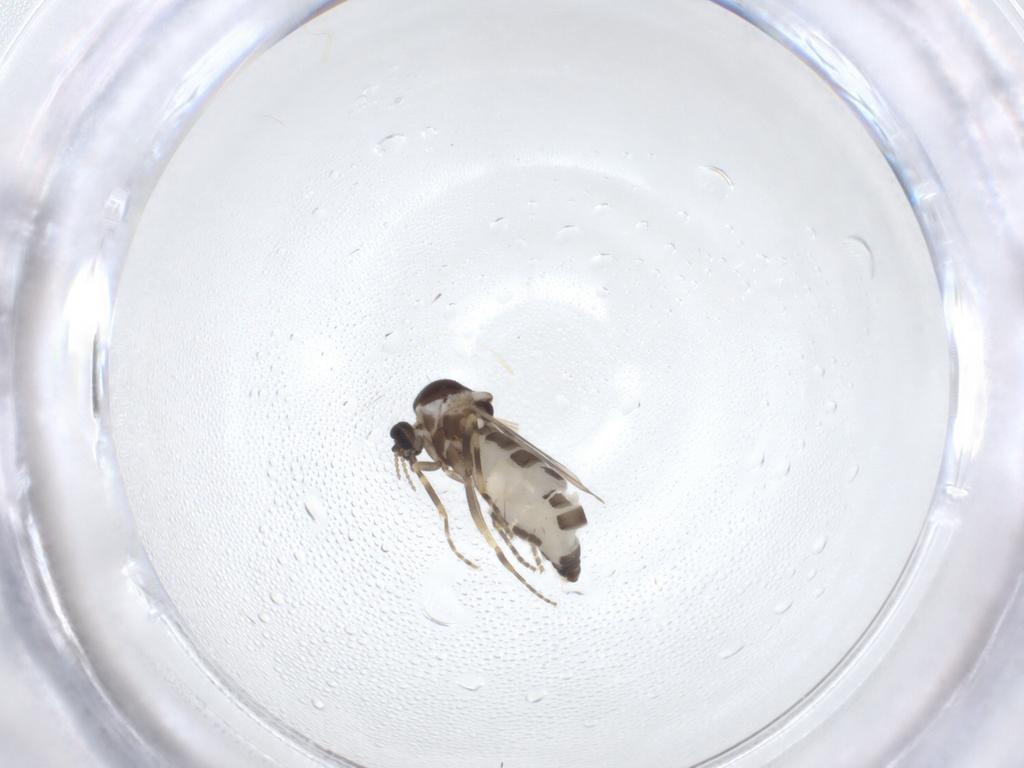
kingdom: Animalia
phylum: Arthropoda
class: Insecta
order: Diptera
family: Ceratopogonidae
